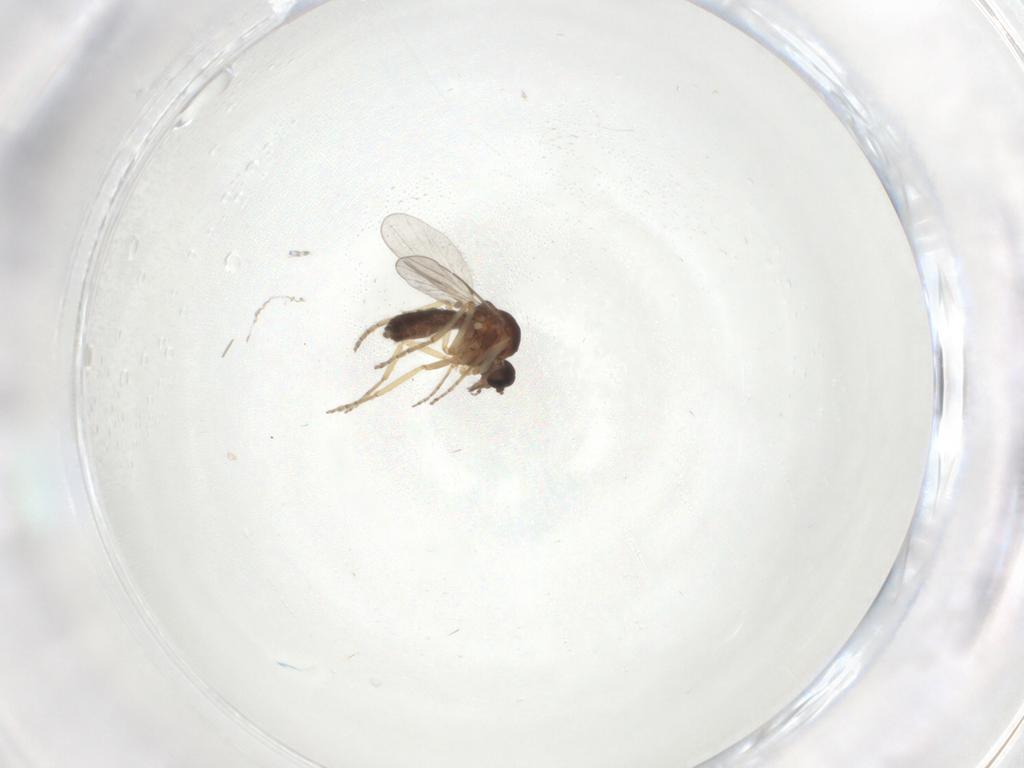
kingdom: Animalia
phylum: Arthropoda
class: Insecta
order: Diptera
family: Ceratopogonidae
